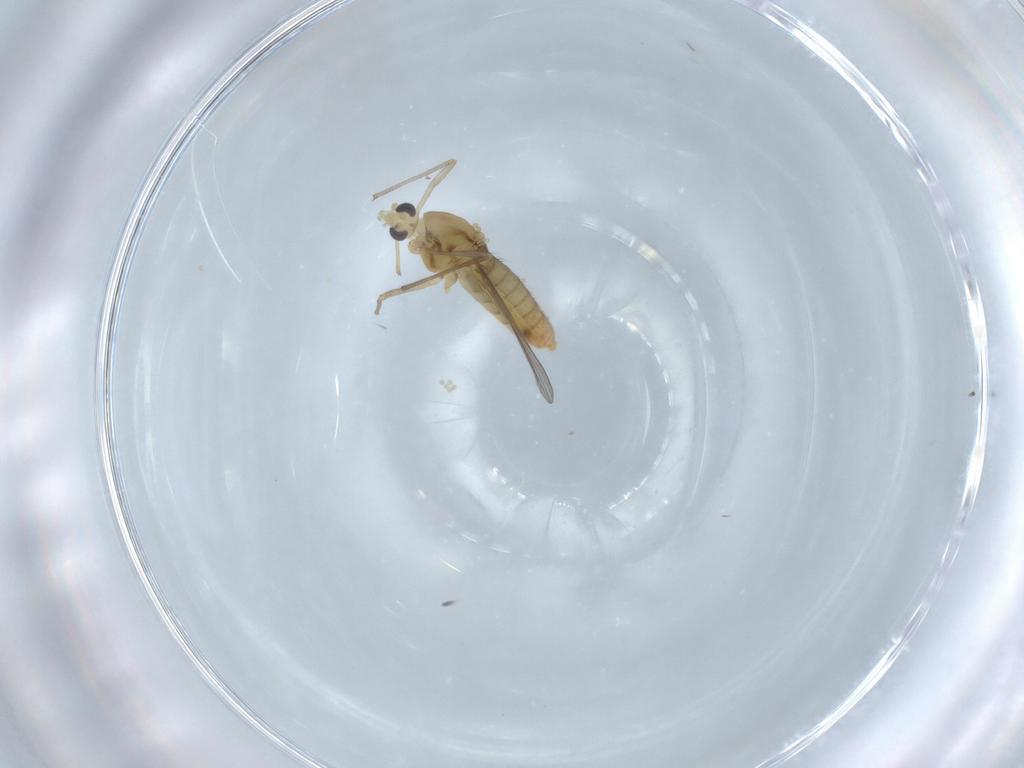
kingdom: Animalia
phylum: Arthropoda
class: Insecta
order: Diptera
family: Chironomidae
